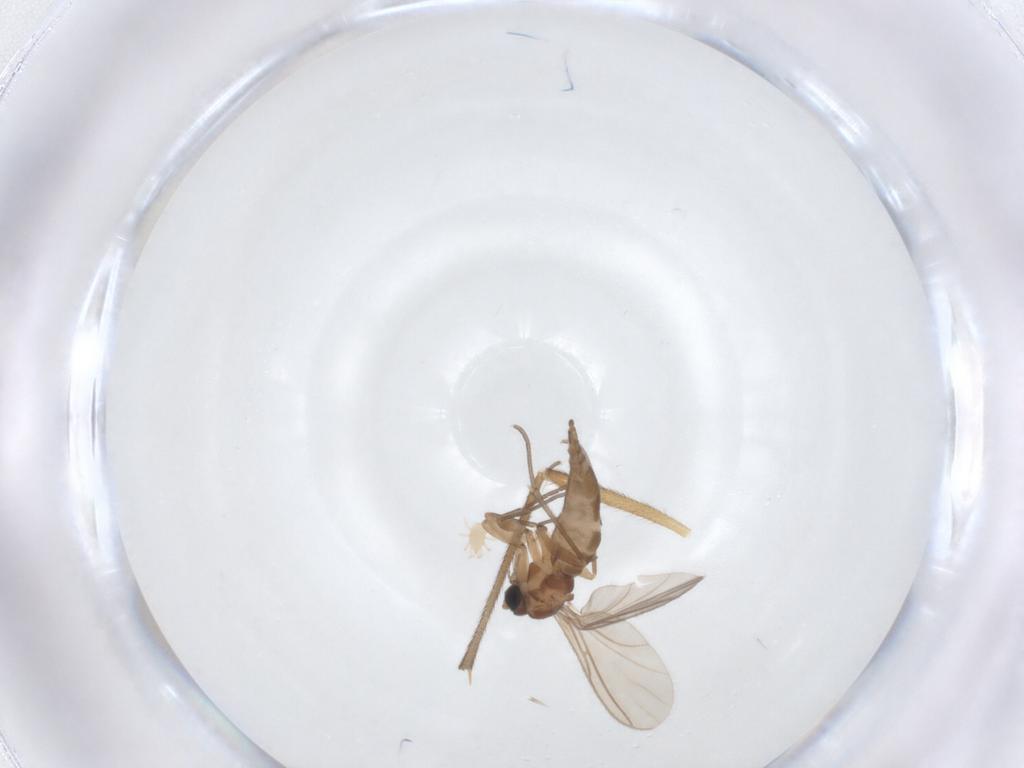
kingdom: Animalia
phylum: Arthropoda
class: Insecta
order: Diptera
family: Sciaridae
